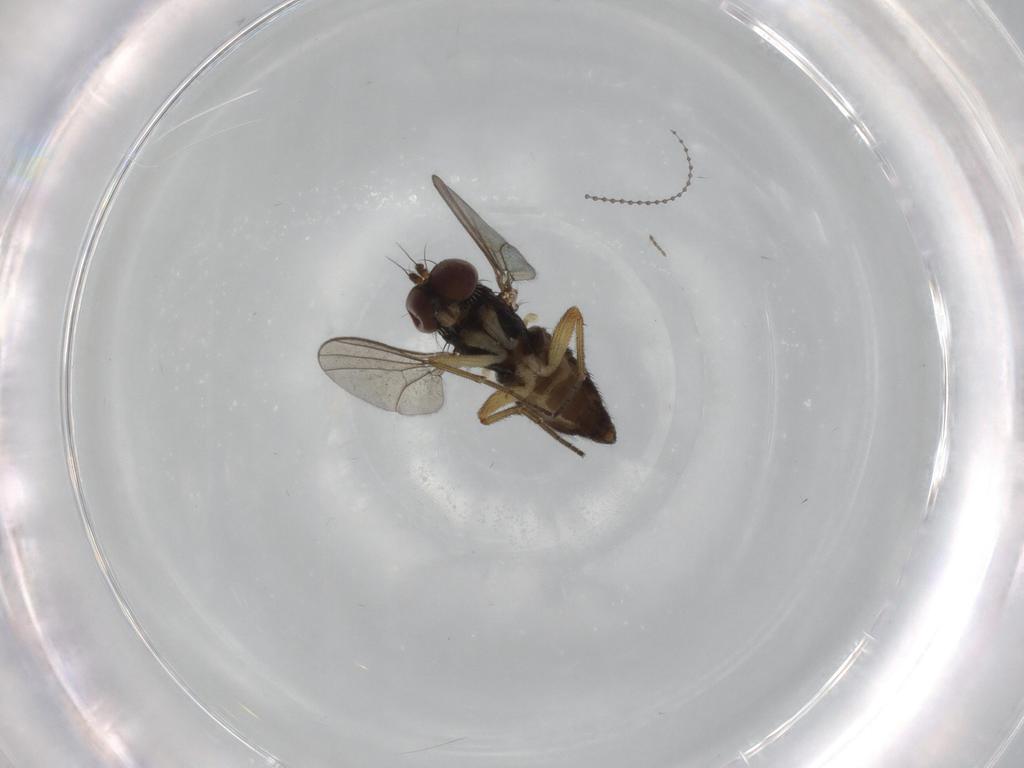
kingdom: Animalia
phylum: Arthropoda
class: Insecta
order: Diptera
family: Dolichopodidae
